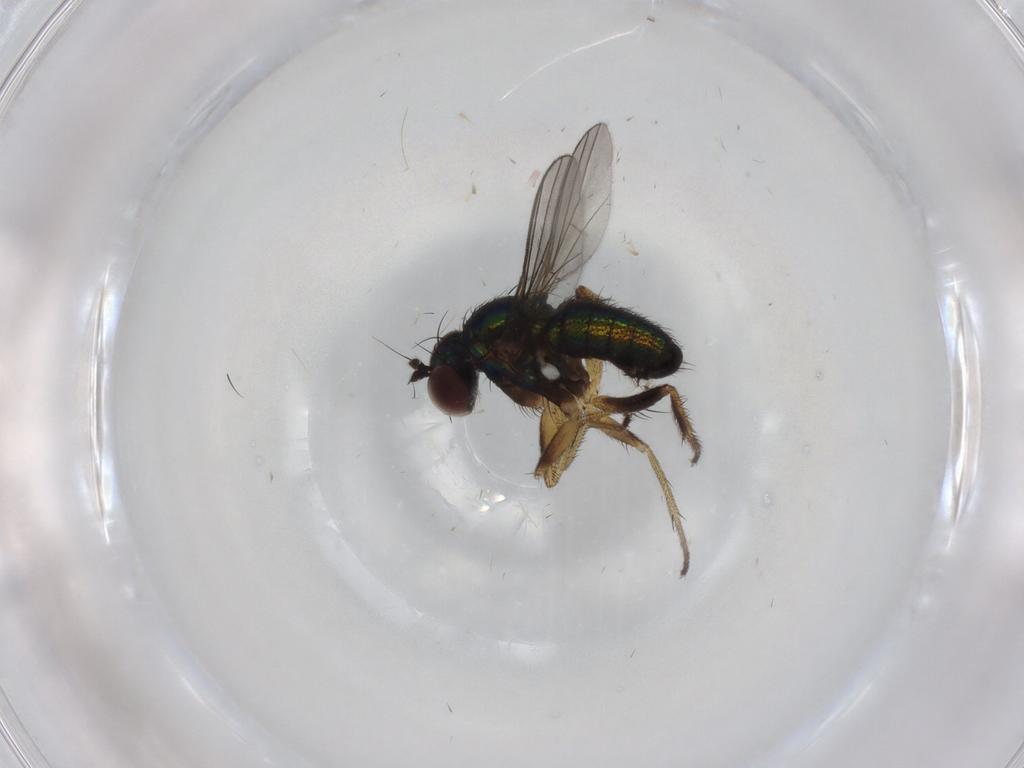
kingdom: Animalia
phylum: Arthropoda
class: Insecta
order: Diptera
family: Dolichopodidae
